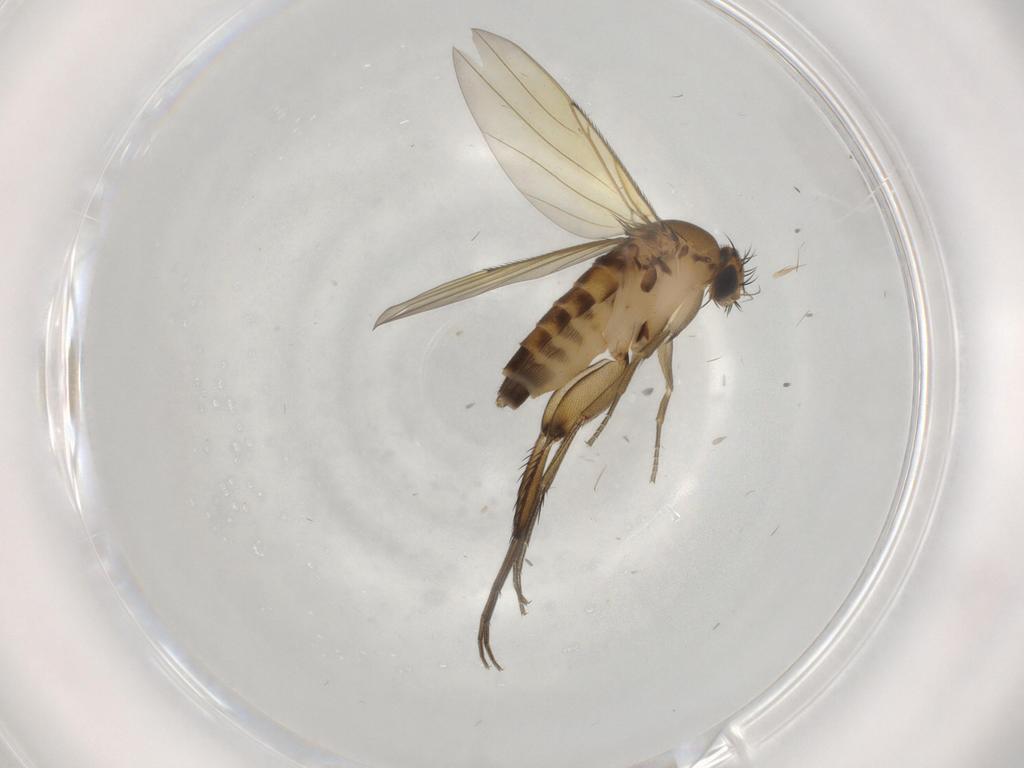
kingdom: Animalia
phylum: Arthropoda
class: Insecta
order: Diptera
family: Phoridae
